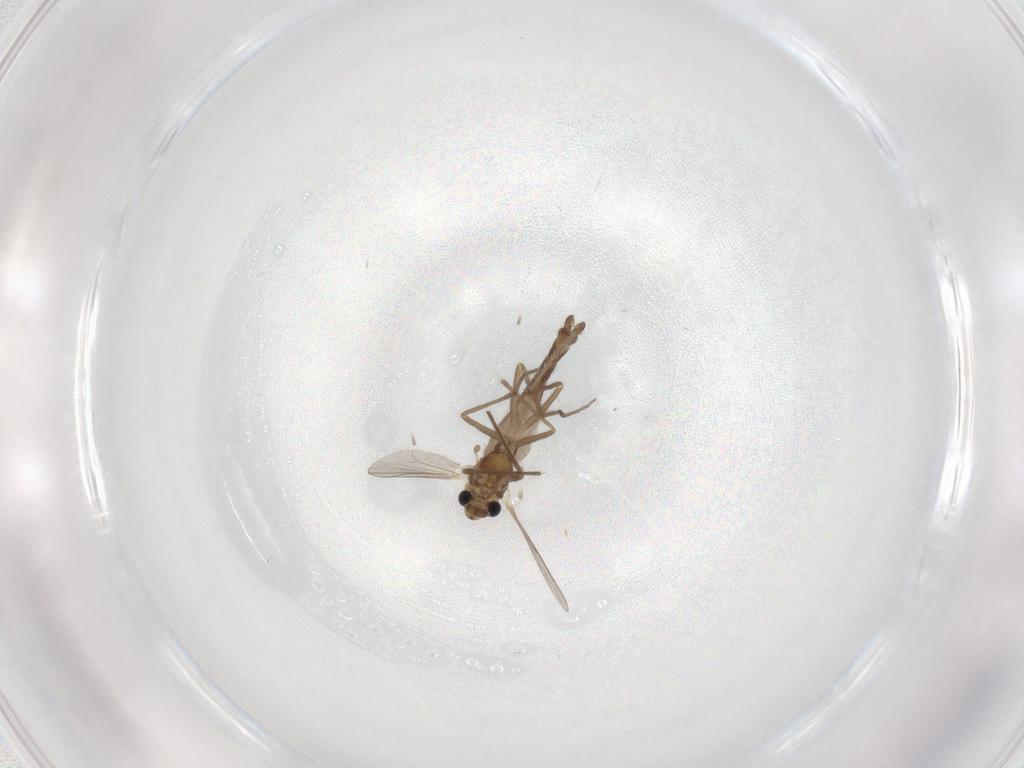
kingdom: Animalia
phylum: Arthropoda
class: Insecta
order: Diptera
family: Chironomidae
